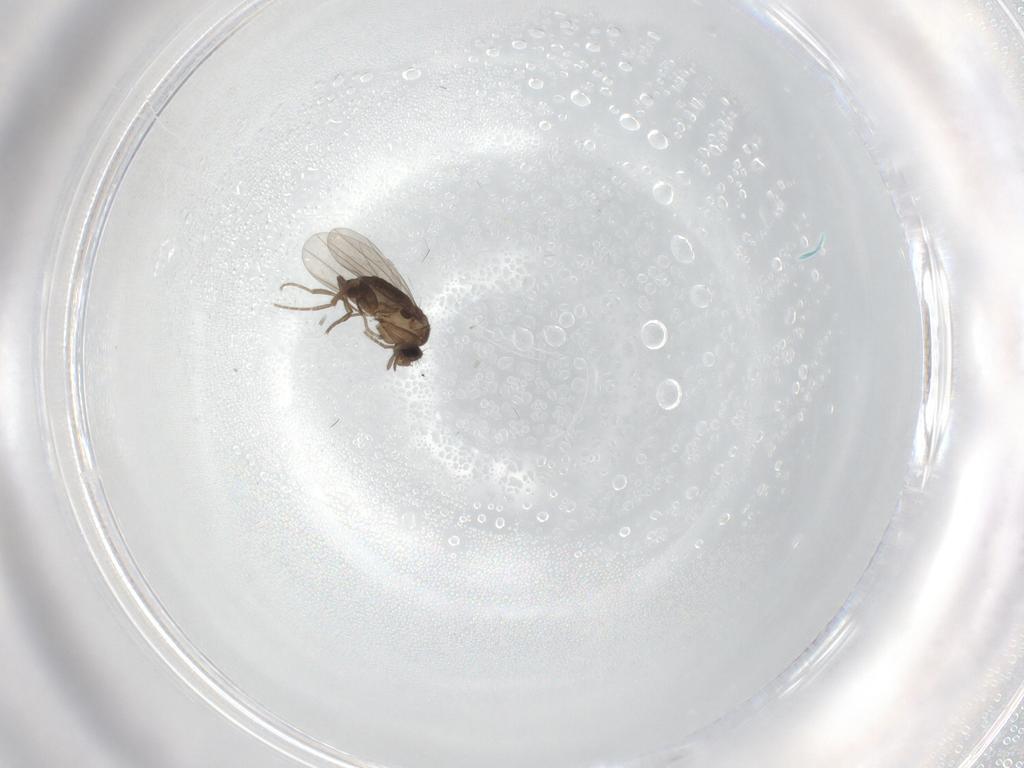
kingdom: Animalia
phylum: Arthropoda
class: Insecta
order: Diptera
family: Cecidomyiidae
